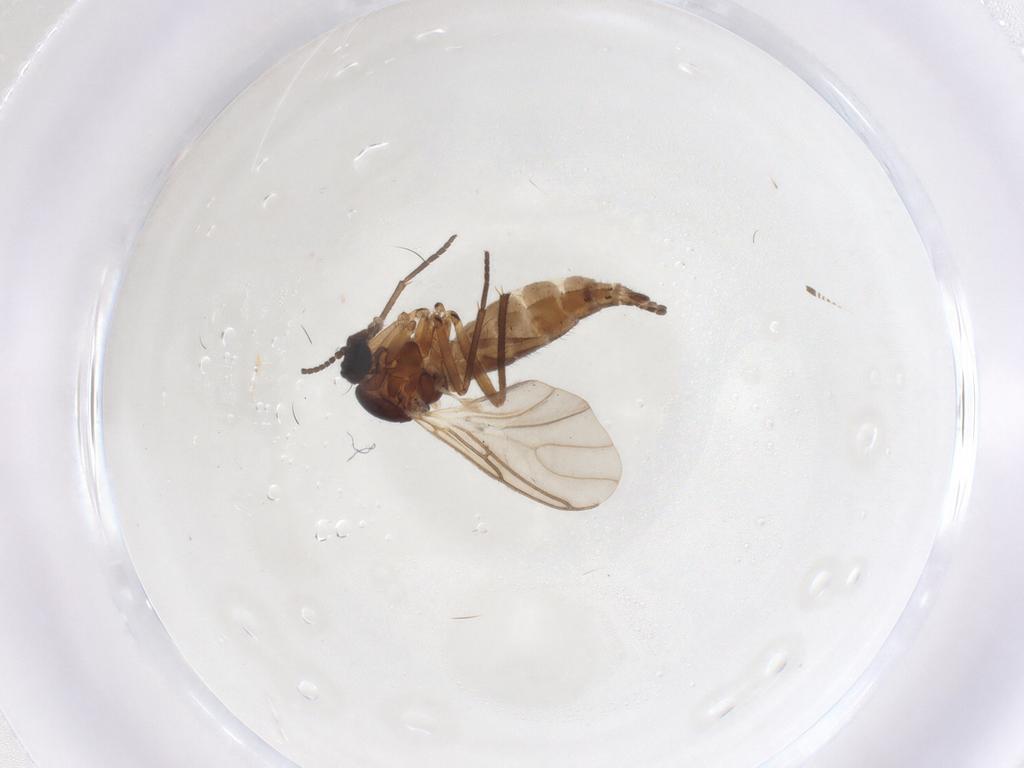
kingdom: Animalia
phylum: Arthropoda
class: Insecta
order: Diptera
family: Sciaridae
